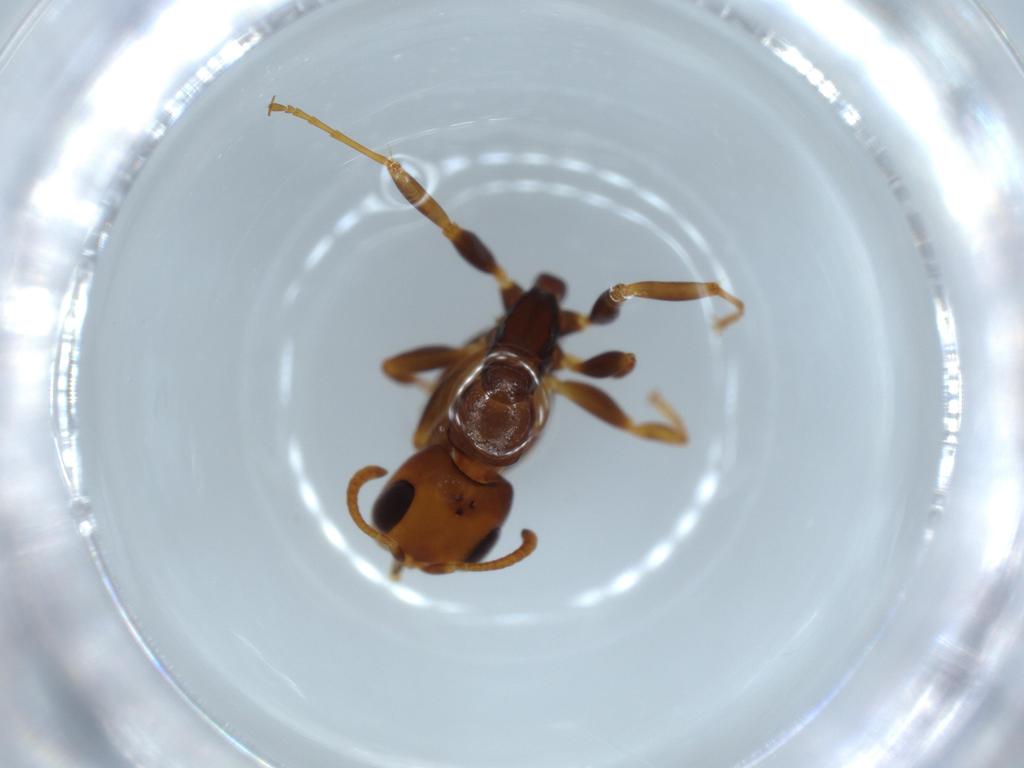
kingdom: Animalia
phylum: Arthropoda
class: Insecta
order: Hymenoptera
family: Formicidae
